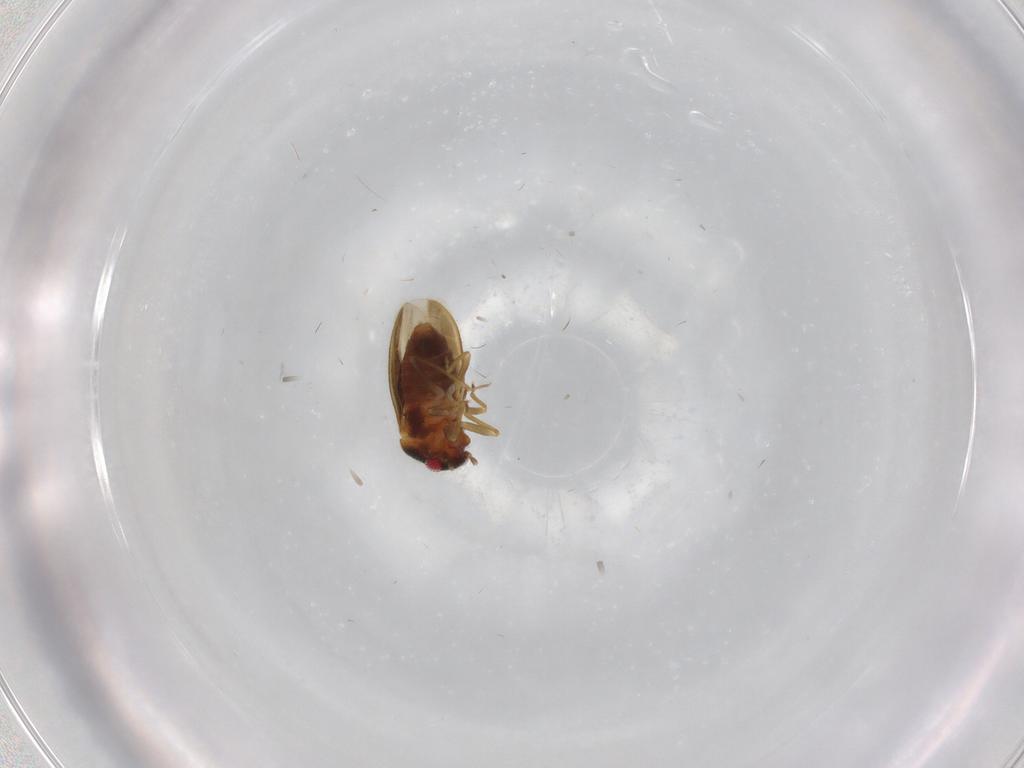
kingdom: Animalia
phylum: Arthropoda
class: Insecta
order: Hemiptera
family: Schizopteridae
